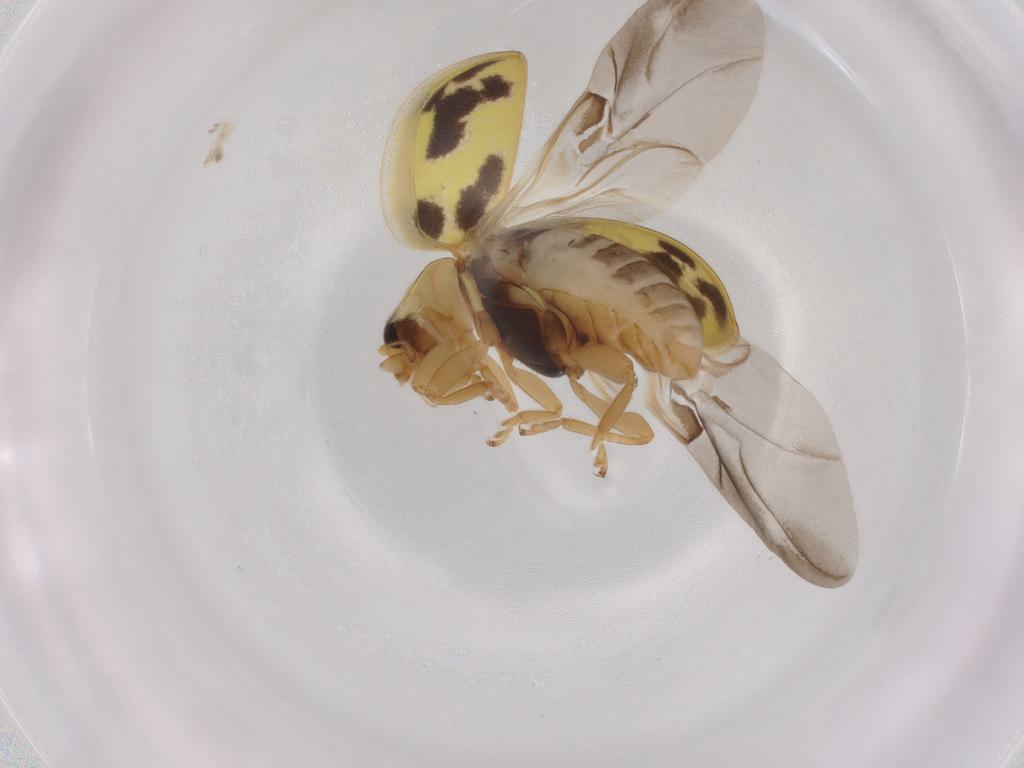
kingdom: Animalia
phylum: Arthropoda
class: Insecta
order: Coleoptera
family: Coccinellidae
